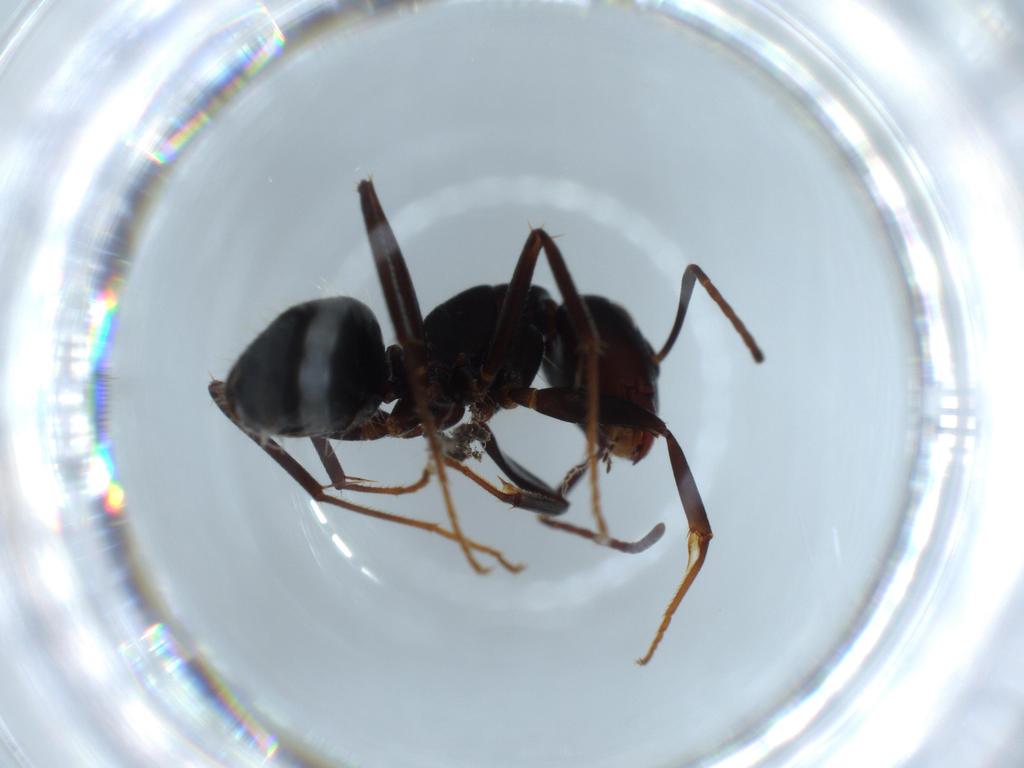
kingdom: Animalia
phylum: Arthropoda
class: Insecta
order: Hymenoptera
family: Formicidae
